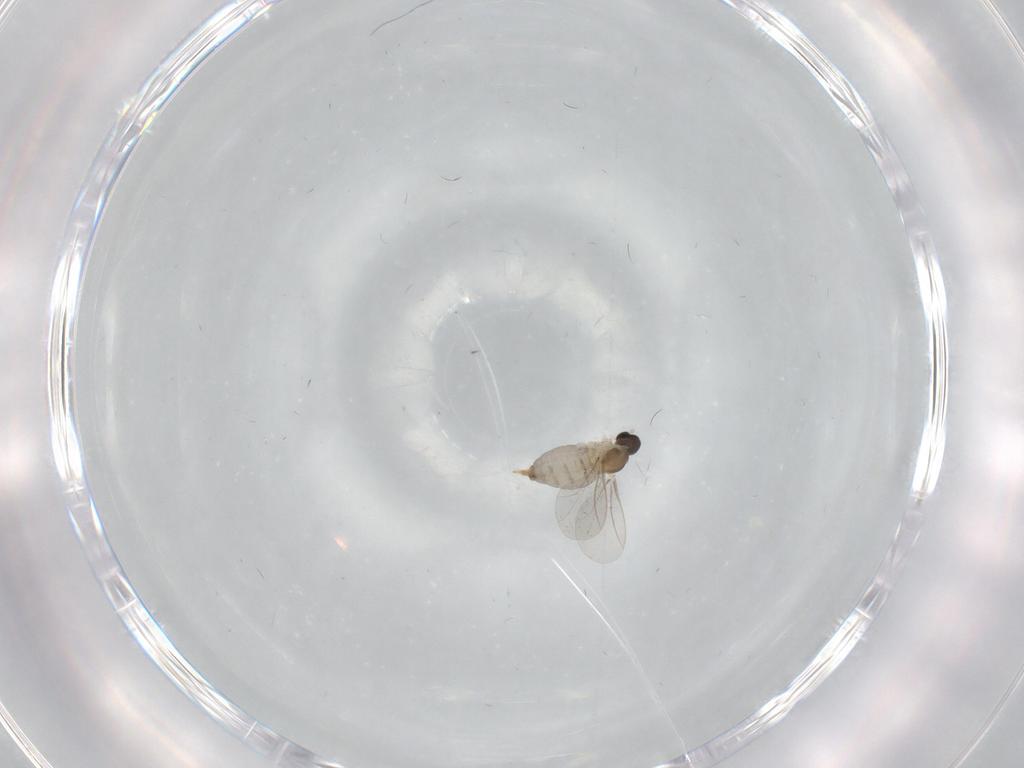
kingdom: Animalia
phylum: Arthropoda
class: Insecta
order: Diptera
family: Cecidomyiidae
